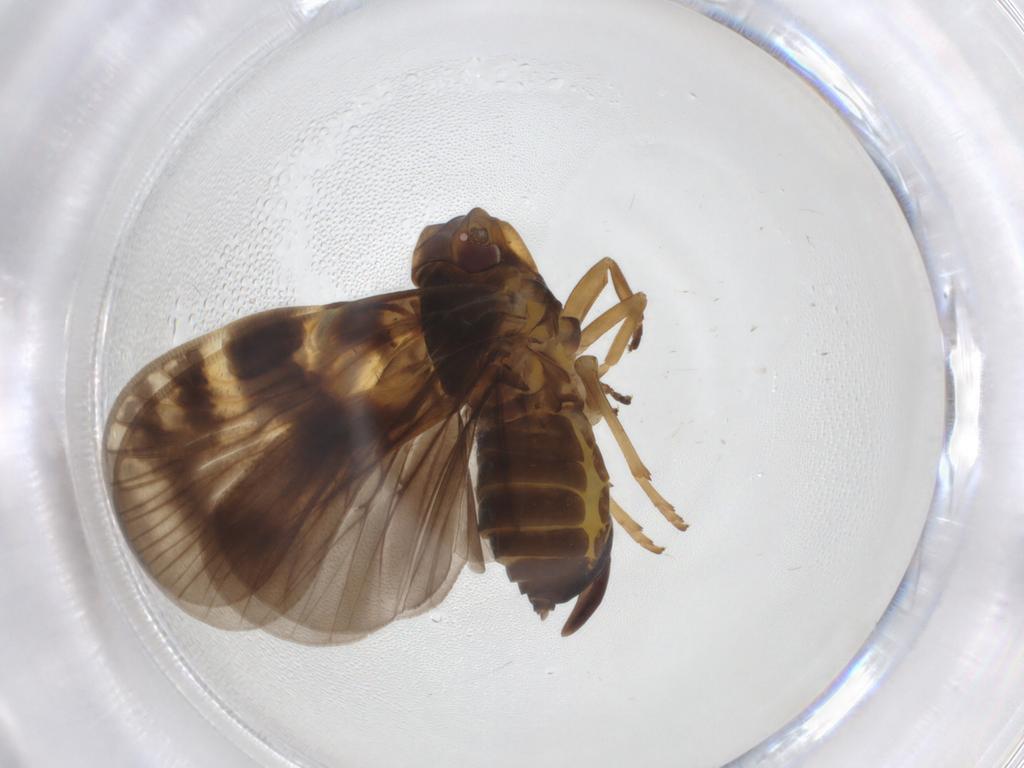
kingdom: Animalia
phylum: Arthropoda
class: Insecta
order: Hemiptera
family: Cixiidae
